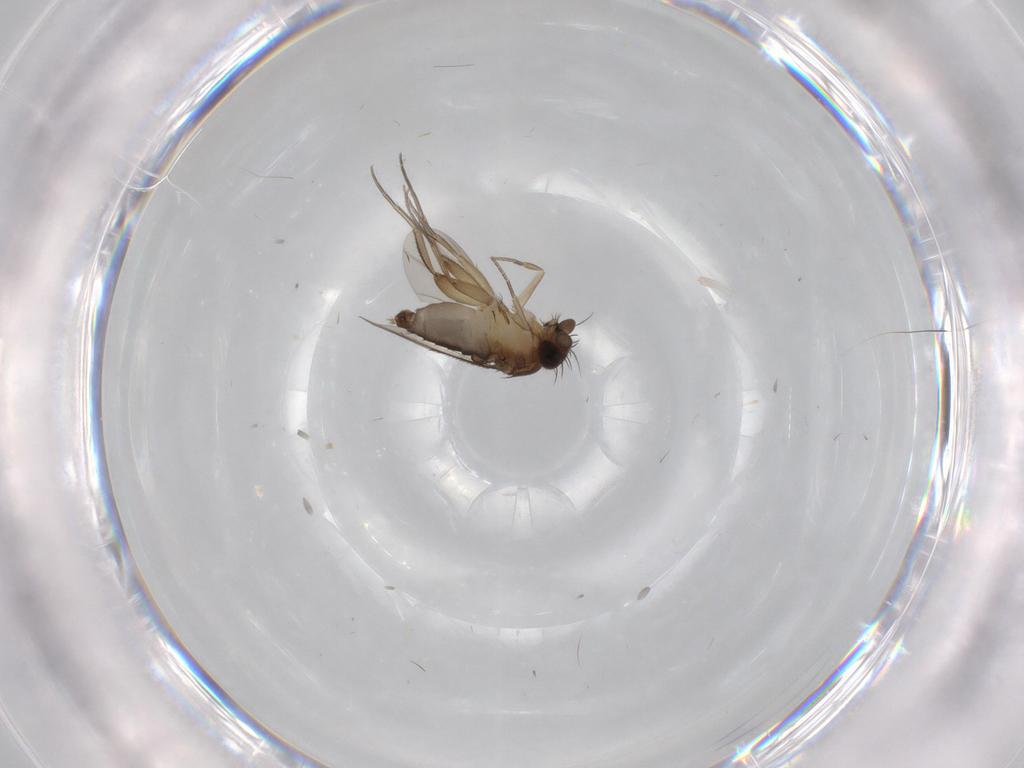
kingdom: Animalia
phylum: Arthropoda
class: Insecta
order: Diptera
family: Phoridae
